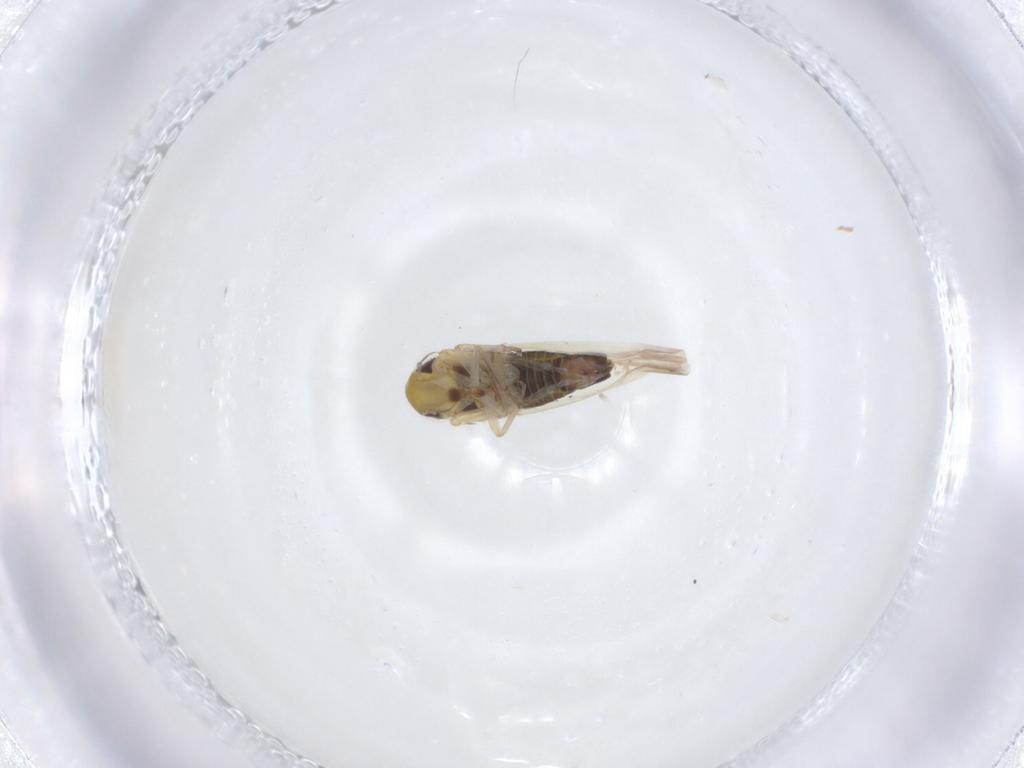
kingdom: Animalia
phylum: Arthropoda
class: Insecta
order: Hemiptera
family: Cicadellidae
